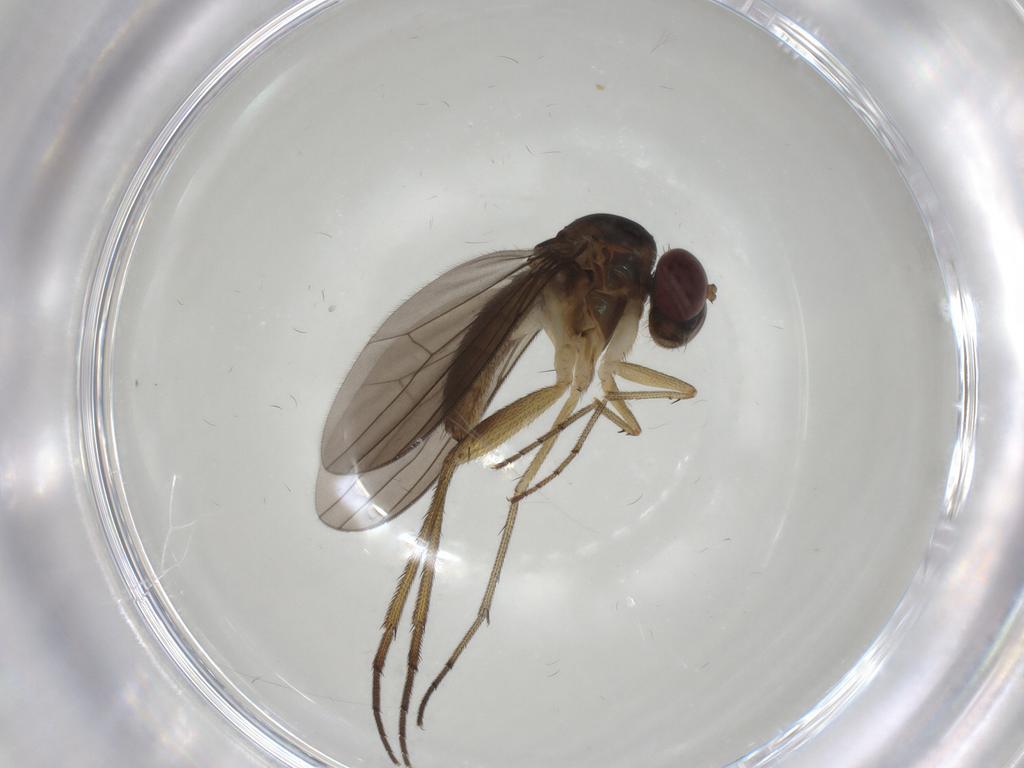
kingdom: Animalia
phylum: Arthropoda
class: Insecta
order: Diptera
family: Dolichopodidae
